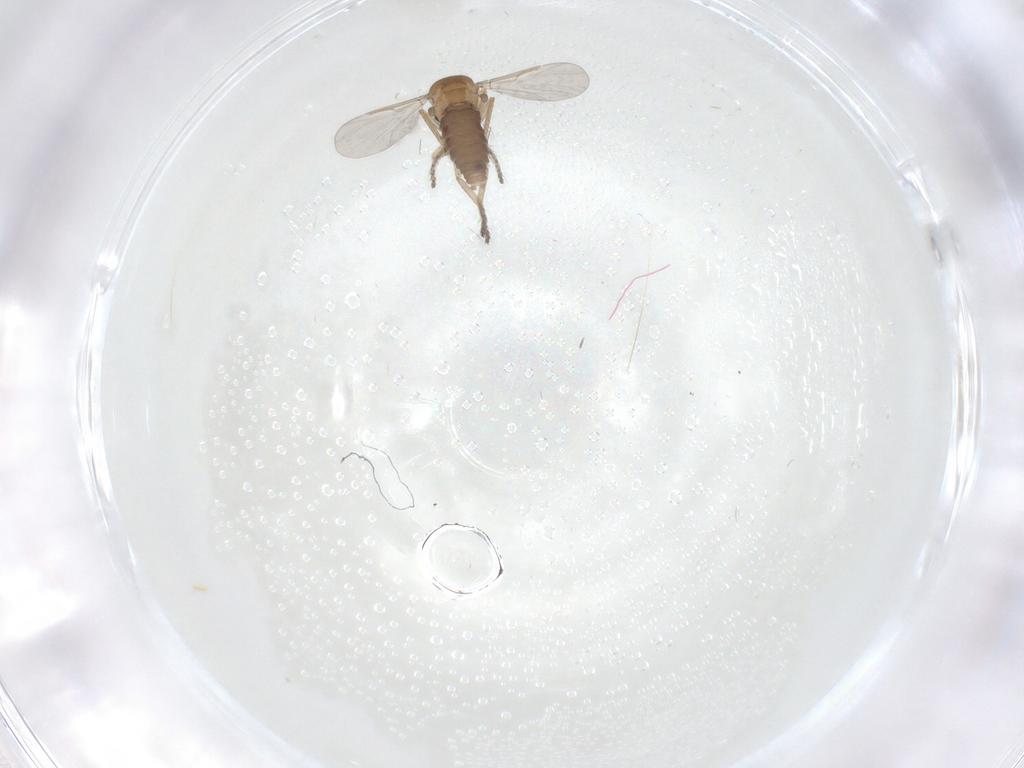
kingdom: Animalia
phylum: Arthropoda
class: Insecta
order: Diptera
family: Ceratopogonidae
